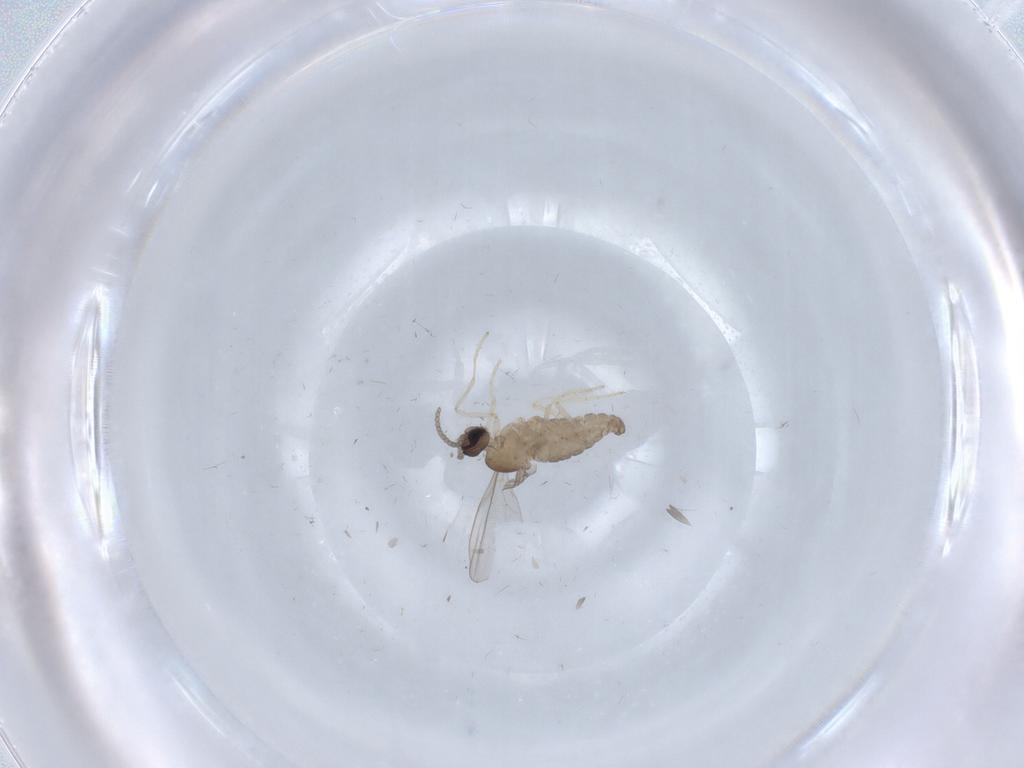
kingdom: Animalia
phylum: Arthropoda
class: Insecta
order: Diptera
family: Cecidomyiidae
